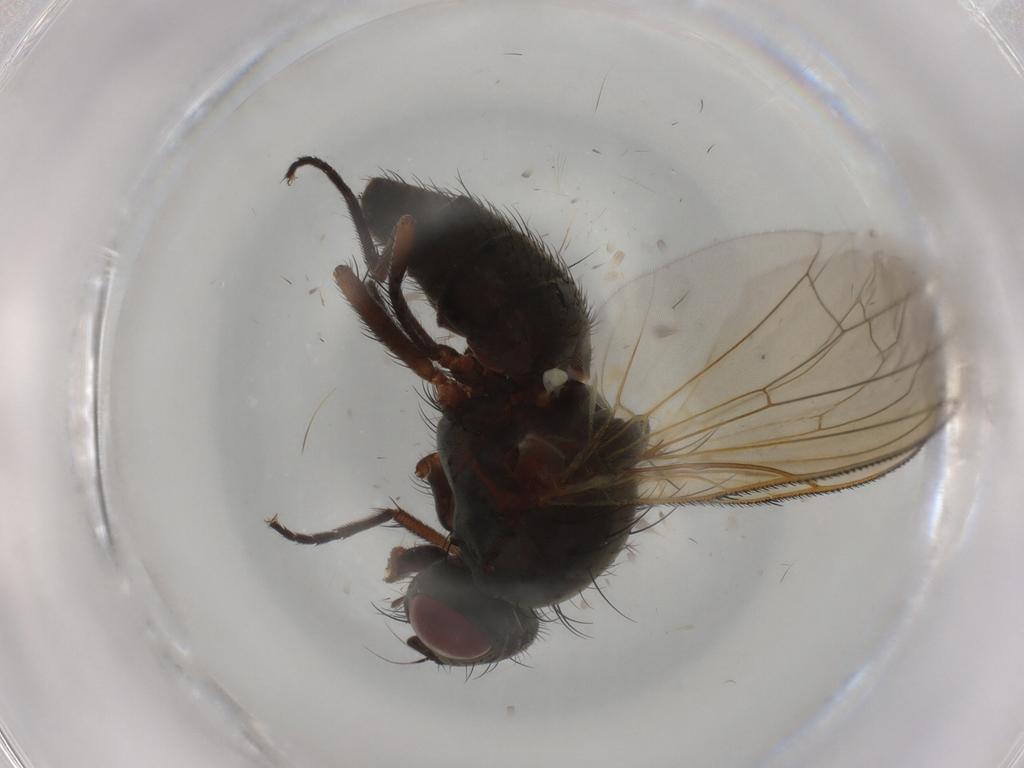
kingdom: Animalia
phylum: Arthropoda
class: Insecta
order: Diptera
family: Anthomyiidae
